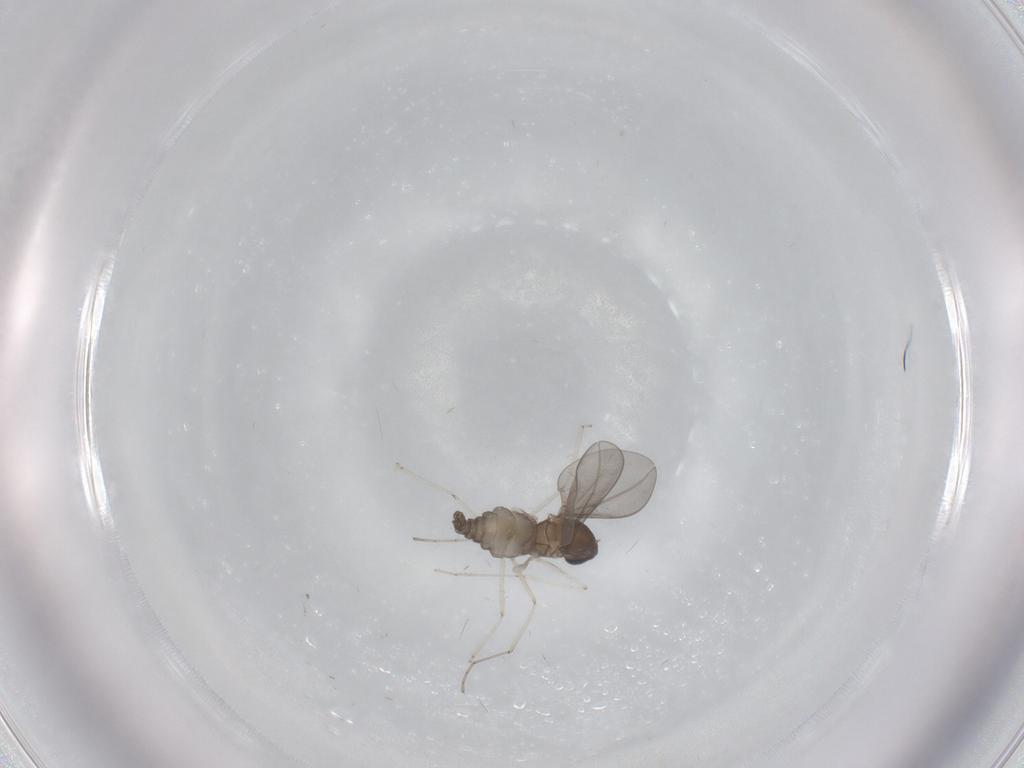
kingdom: Animalia
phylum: Arthropoda
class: Insecta
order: Diptera
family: Cecidomyiidae
